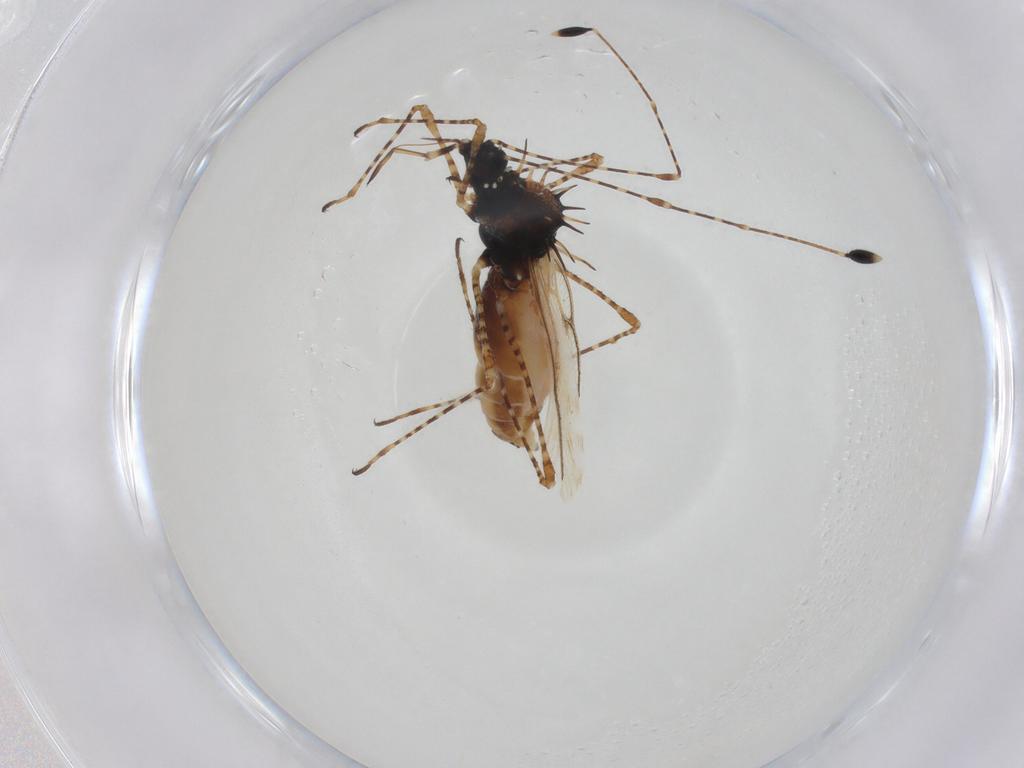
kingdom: Animalia
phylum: Arthropoda
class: Insecta
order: Hemiptera
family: Berytidae
